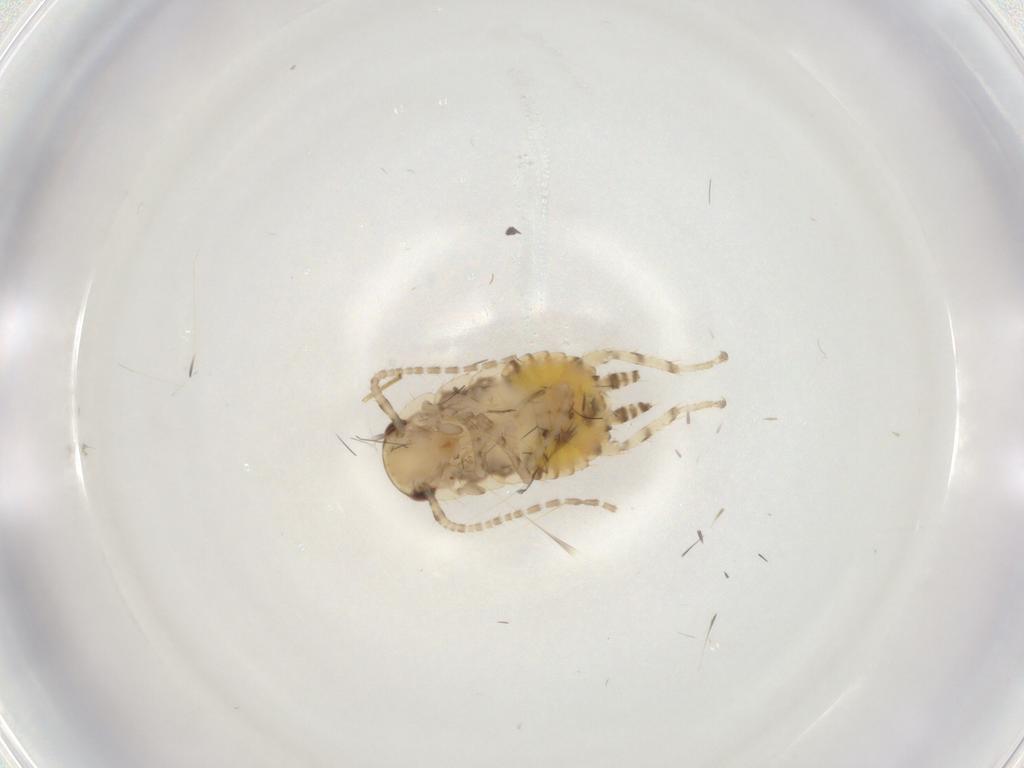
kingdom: Animalia
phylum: Arthropoda
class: Insecta
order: Blattodea
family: Ectobiidae
